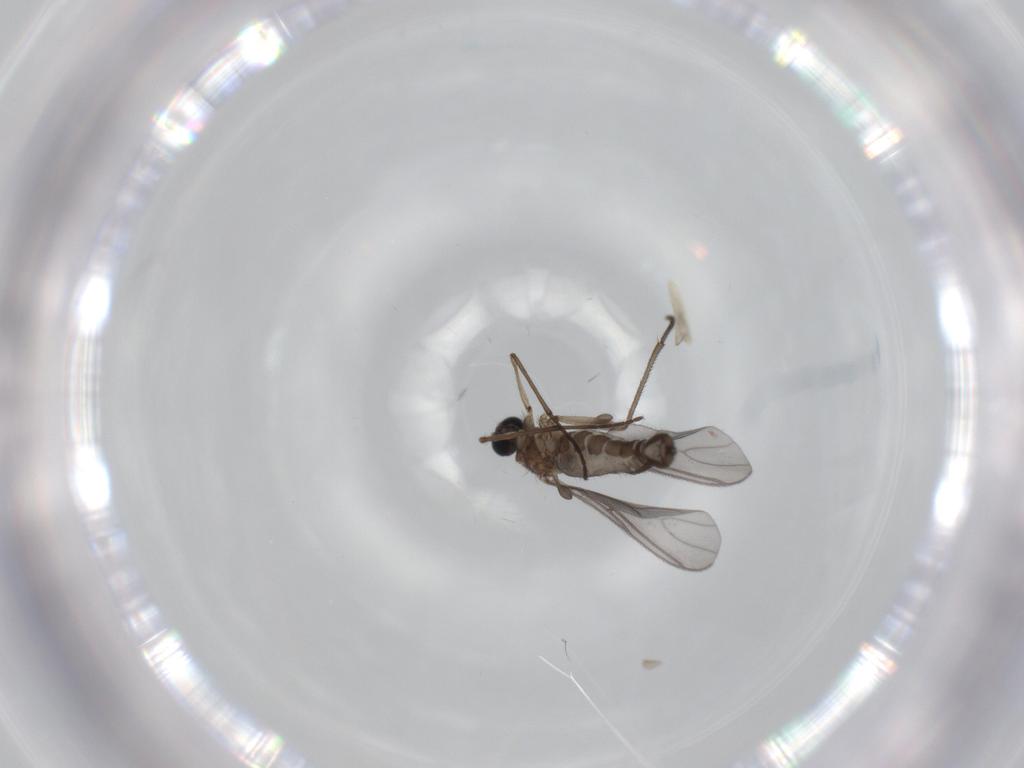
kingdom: Animalia
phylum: Arthropoda
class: Insecta
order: Diptera
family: Sciaridae
